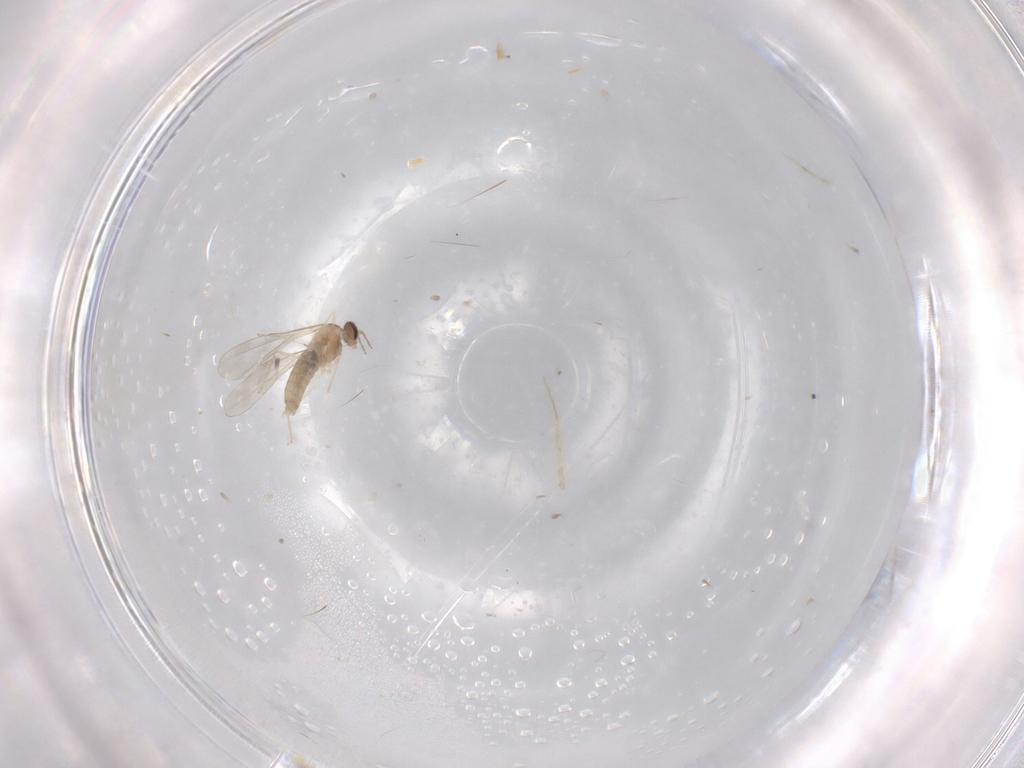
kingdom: Animalia
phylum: Arthropoda
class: Insecta
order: Diptera
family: Cecidomyiidae
